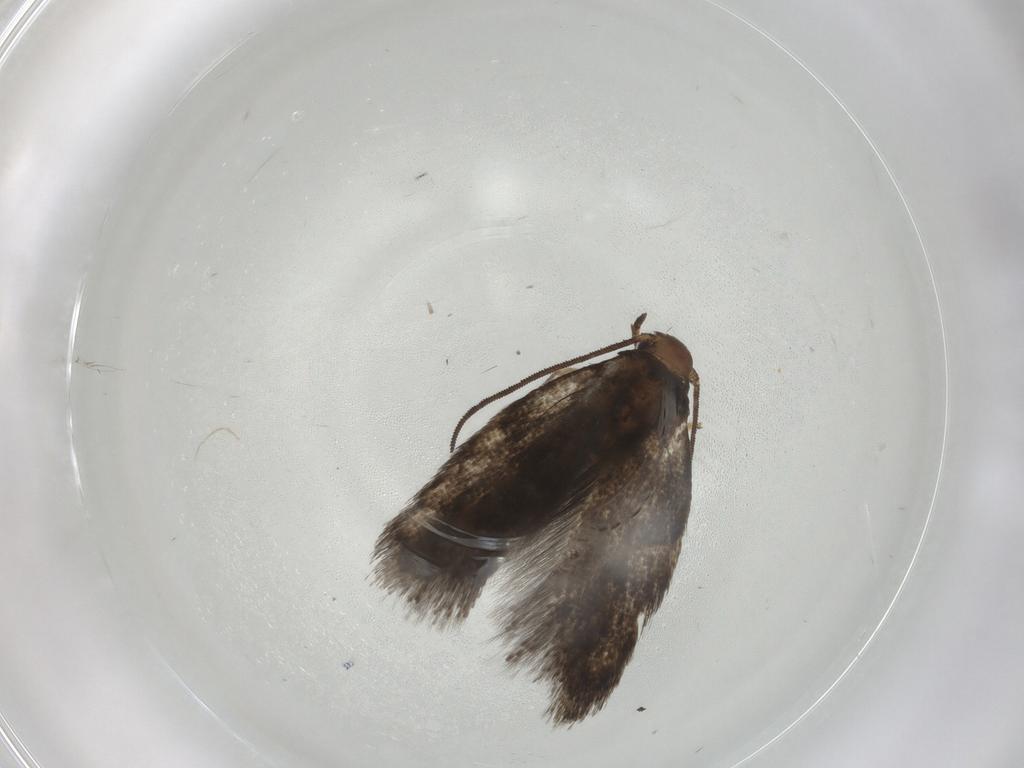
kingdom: Animalia
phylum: Arthropoda
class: Insecta
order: Lepidoptera
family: Pieridae
